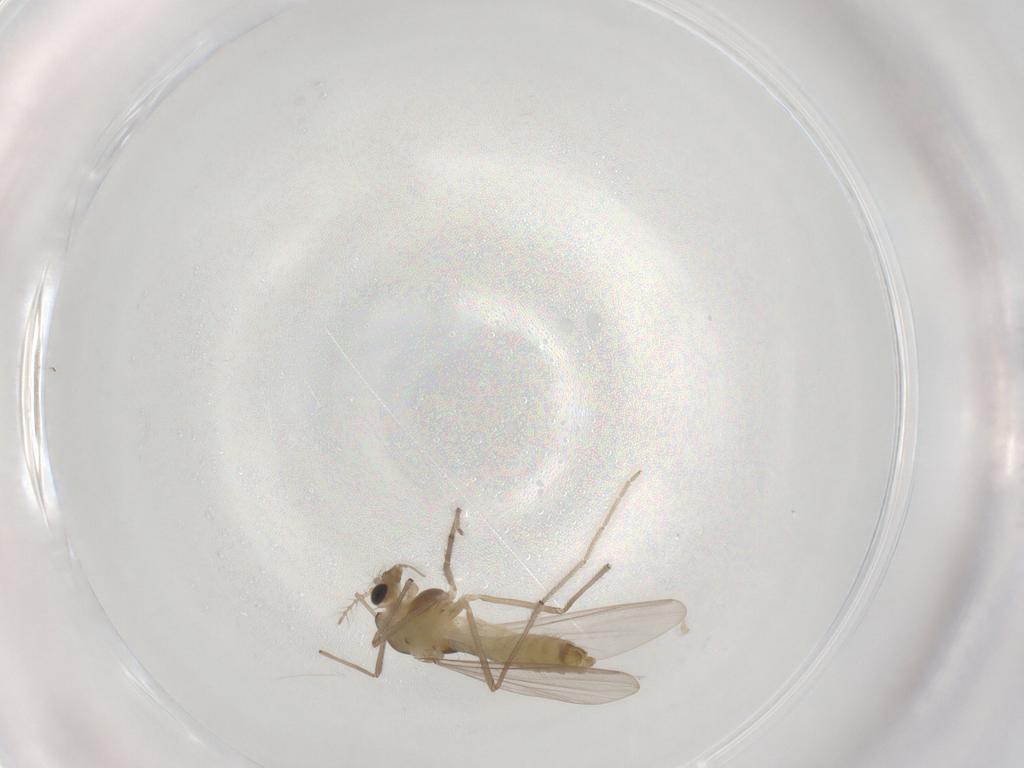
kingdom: Animalia
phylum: Arthropoda
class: Insecta
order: Diptera
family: Chironomidae
